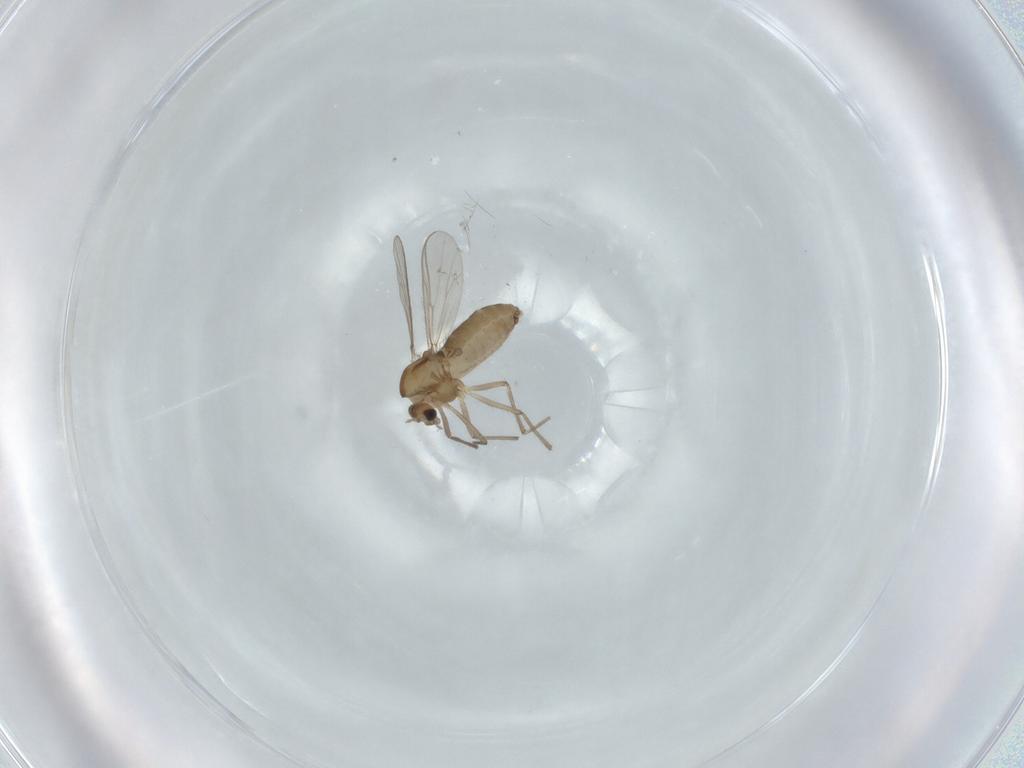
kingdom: Animalia
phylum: Arthropoda
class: Insecta
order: Diptera
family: Chironomidae
